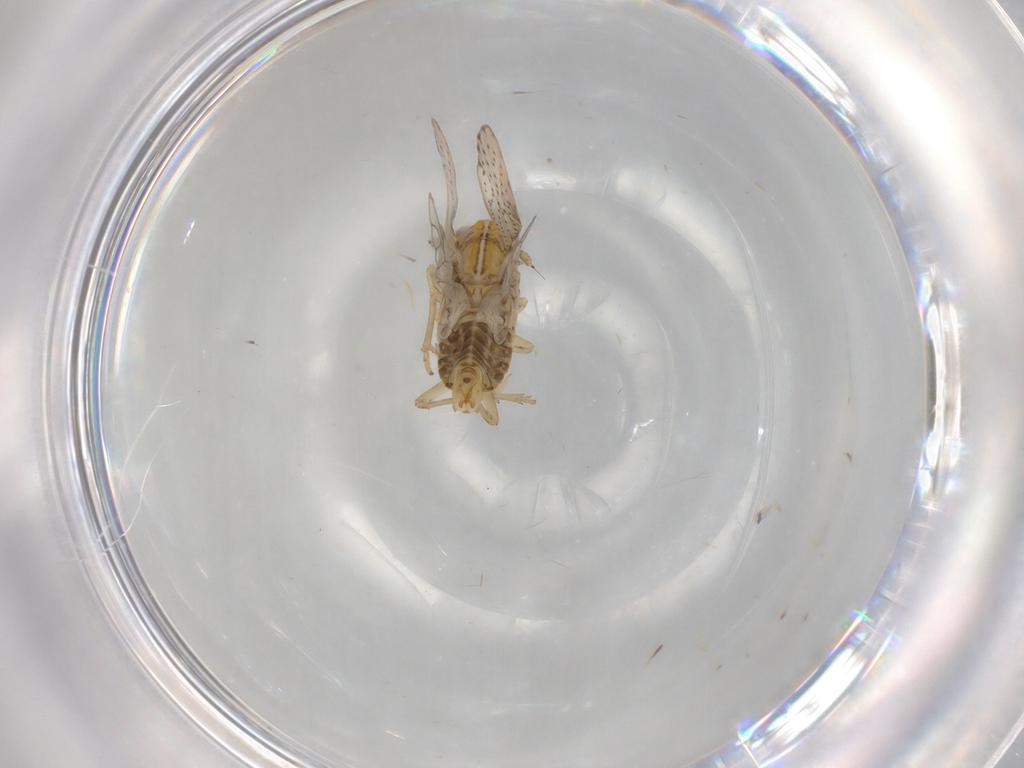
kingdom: Animalia
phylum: Arthropoda
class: Insecta
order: Hemiptera
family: Delphacidae
